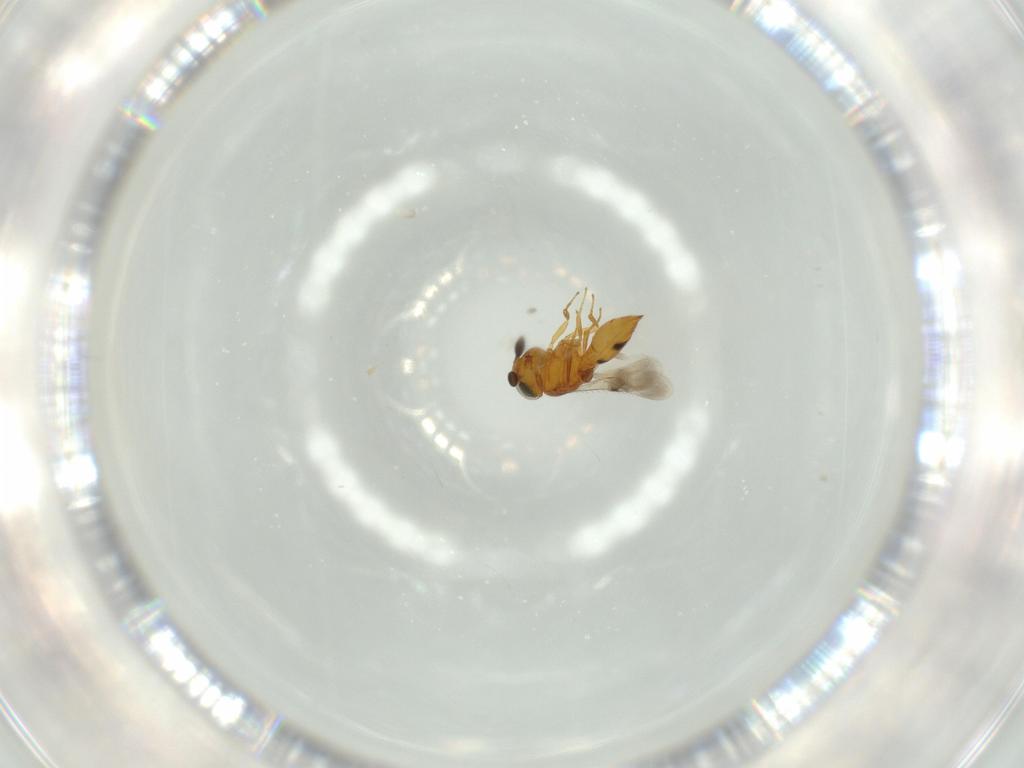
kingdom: Animalia
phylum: Arthropoda
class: Insecta
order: Hymenoptera
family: Scelionidae
